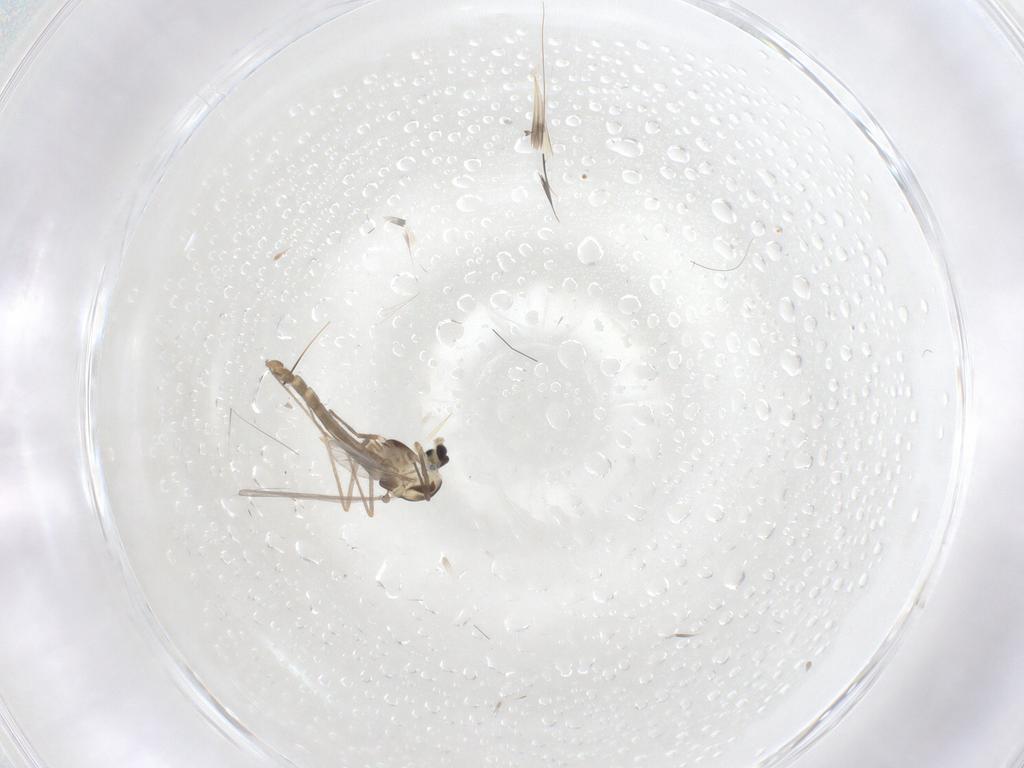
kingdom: Animalia
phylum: Arthropoda
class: Insecta
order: Diptera
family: Chironomidae
